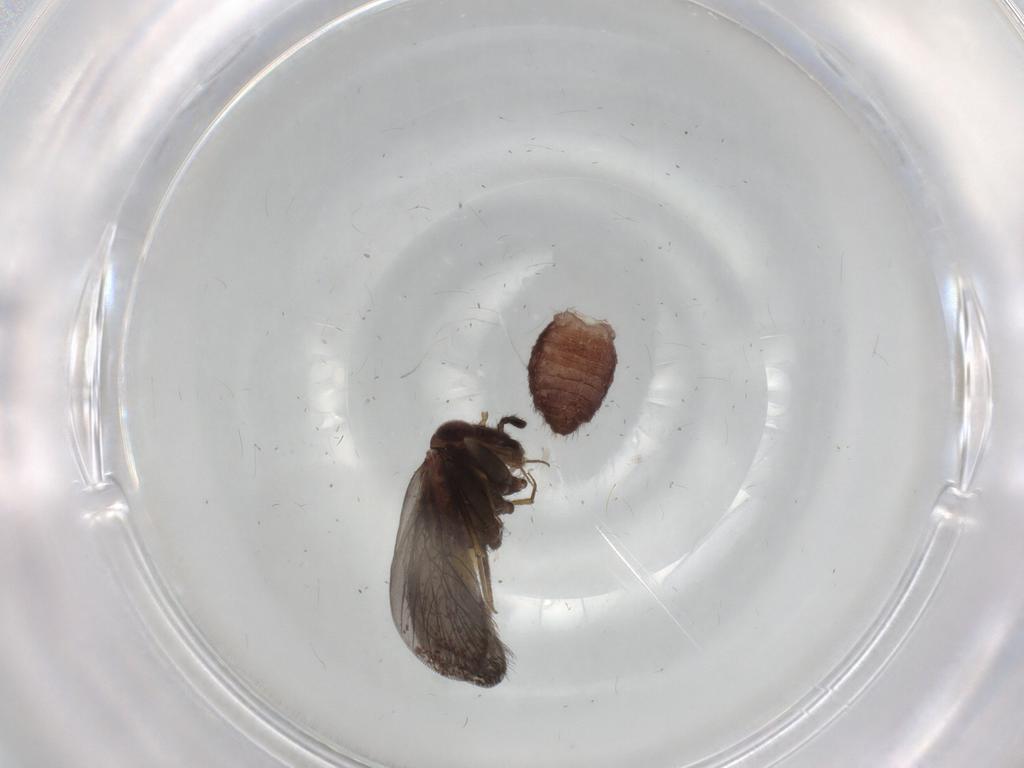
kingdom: Animalia
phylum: Arthropoda
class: Insecta
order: Psocodea
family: Lepidopsocidae
